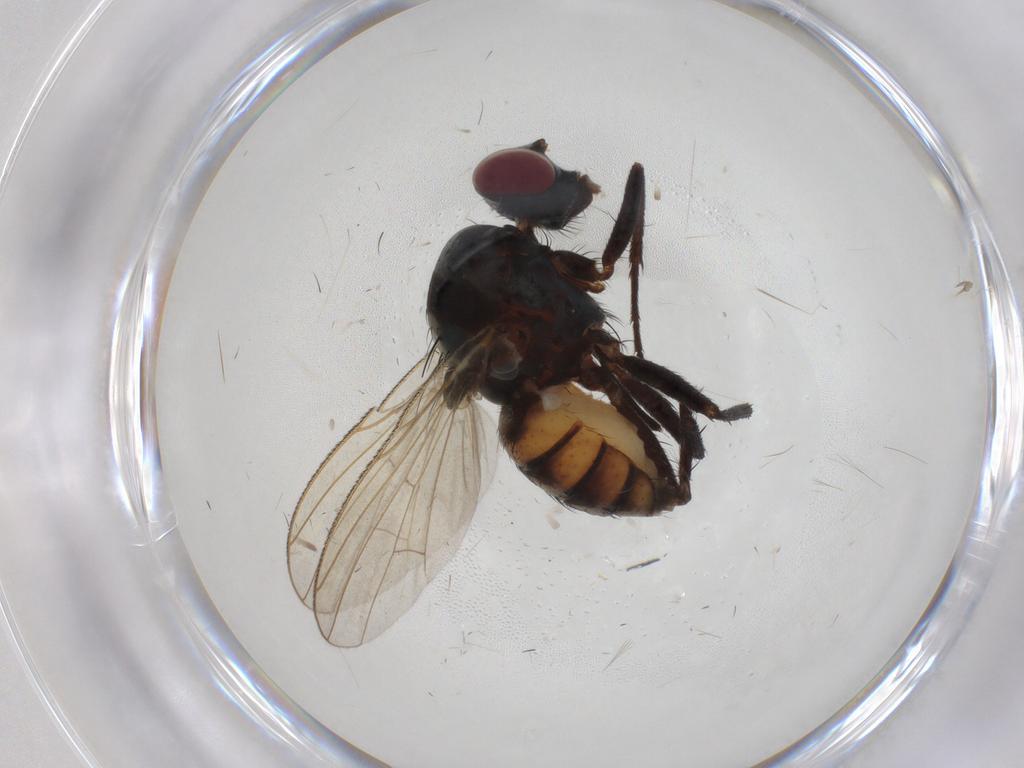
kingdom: Animalia
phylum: Arthropoda
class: Insecta
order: Diptera
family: Anthomyiidae
